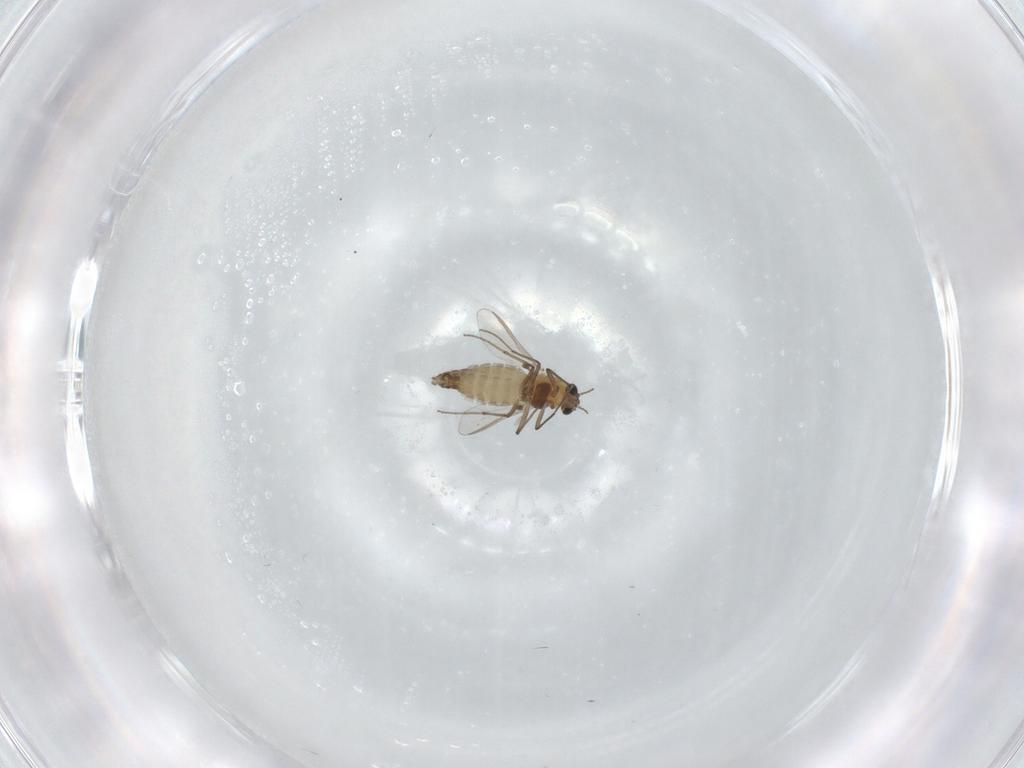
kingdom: Animalia
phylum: Arthropoda
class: Insecta
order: Diptera
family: Chironomidae
